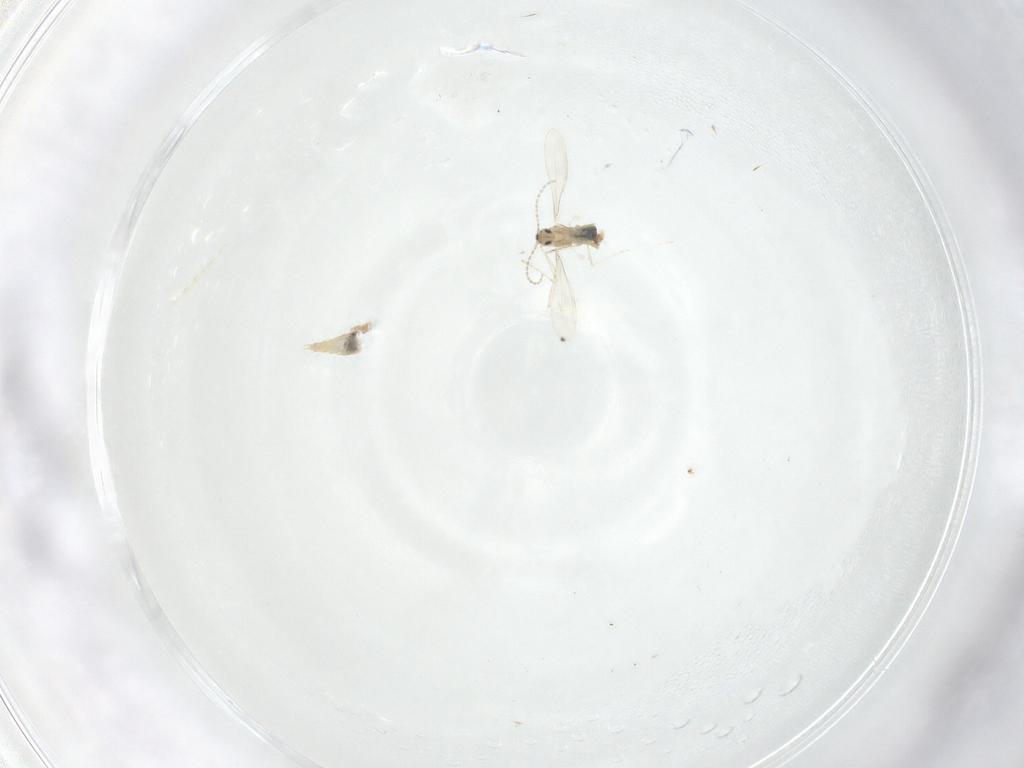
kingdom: Animalia
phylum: Arthropoda
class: Insecta
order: Diptera
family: Cecidomyiidae
